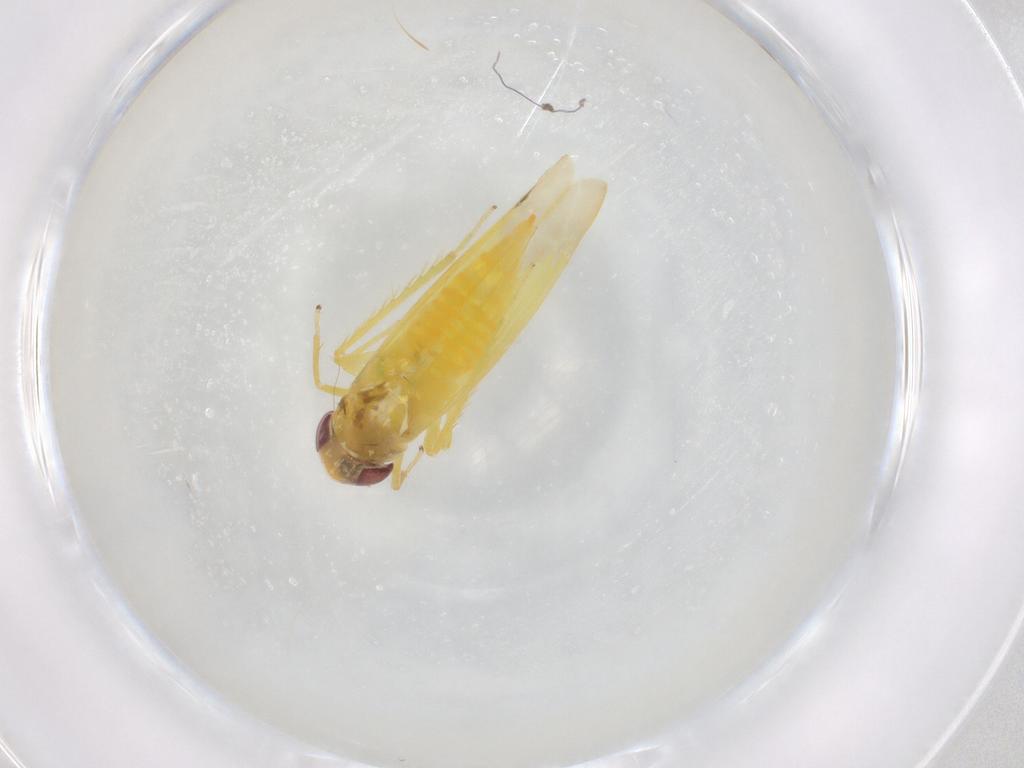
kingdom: Animalia
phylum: Arthropoda
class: Insecta
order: Hemiptera
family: Cicadellidae
